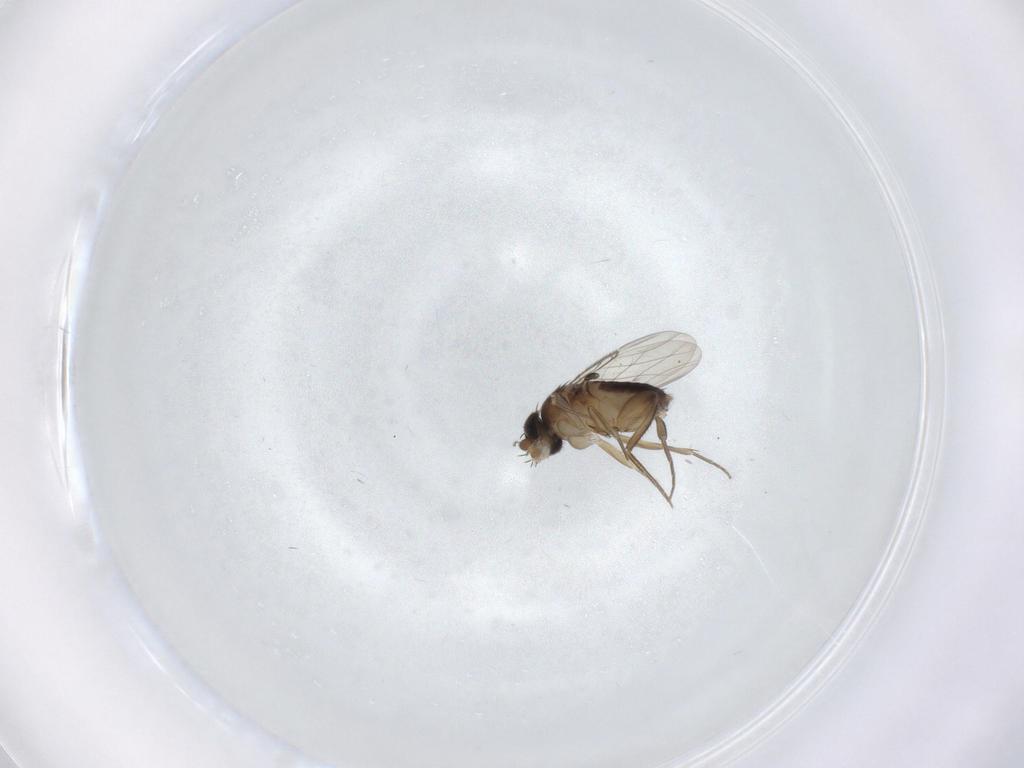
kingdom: Animalia
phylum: Arthropoda
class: Insecta
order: Diptera
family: Phoridae
